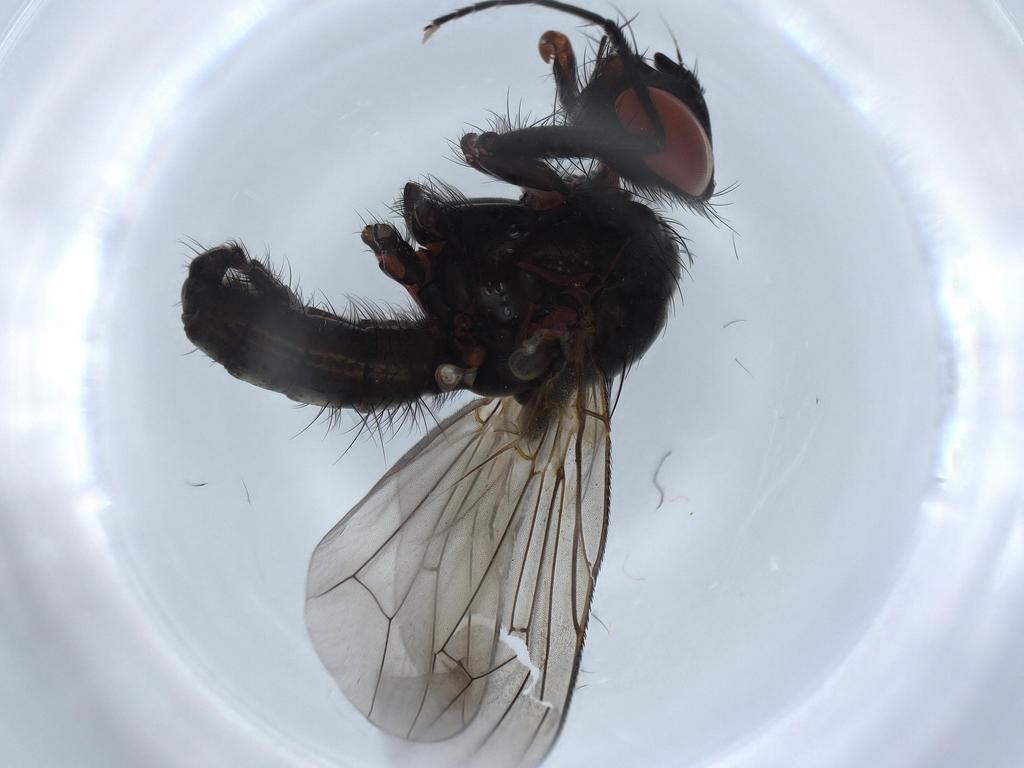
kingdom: Animalia
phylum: Arthropoda
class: Insecta
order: Diptera
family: Anthomyiidae
